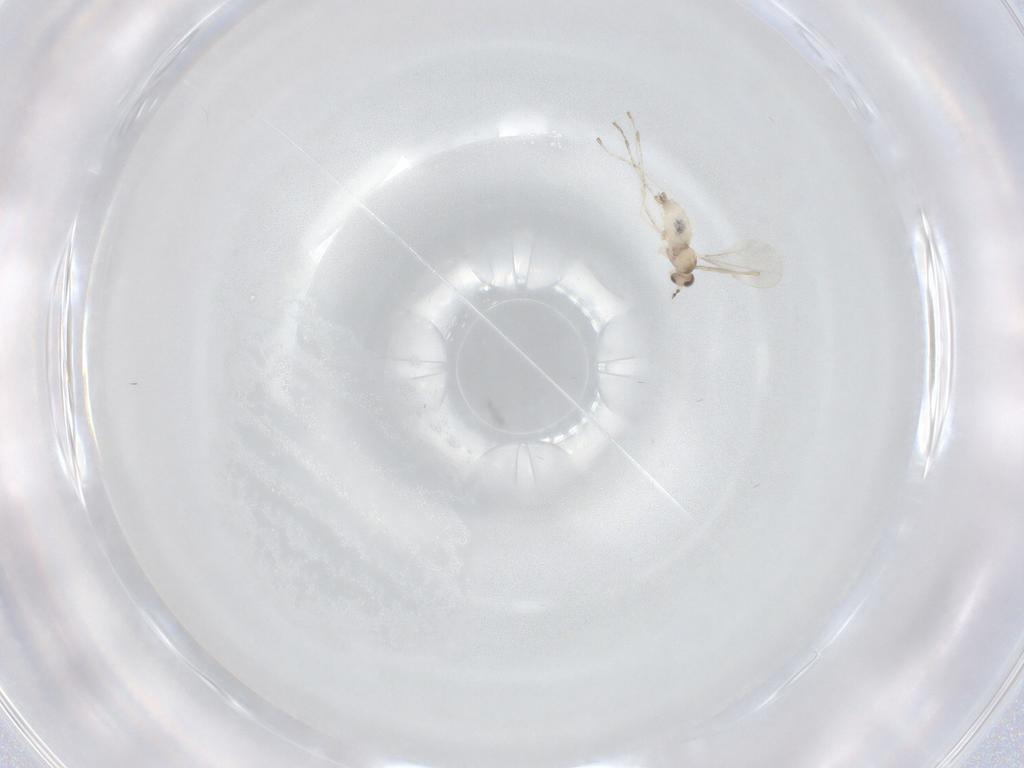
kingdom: Animalia
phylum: Arthropoda
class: Insecta
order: Diptera
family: Cecidomyiidae
